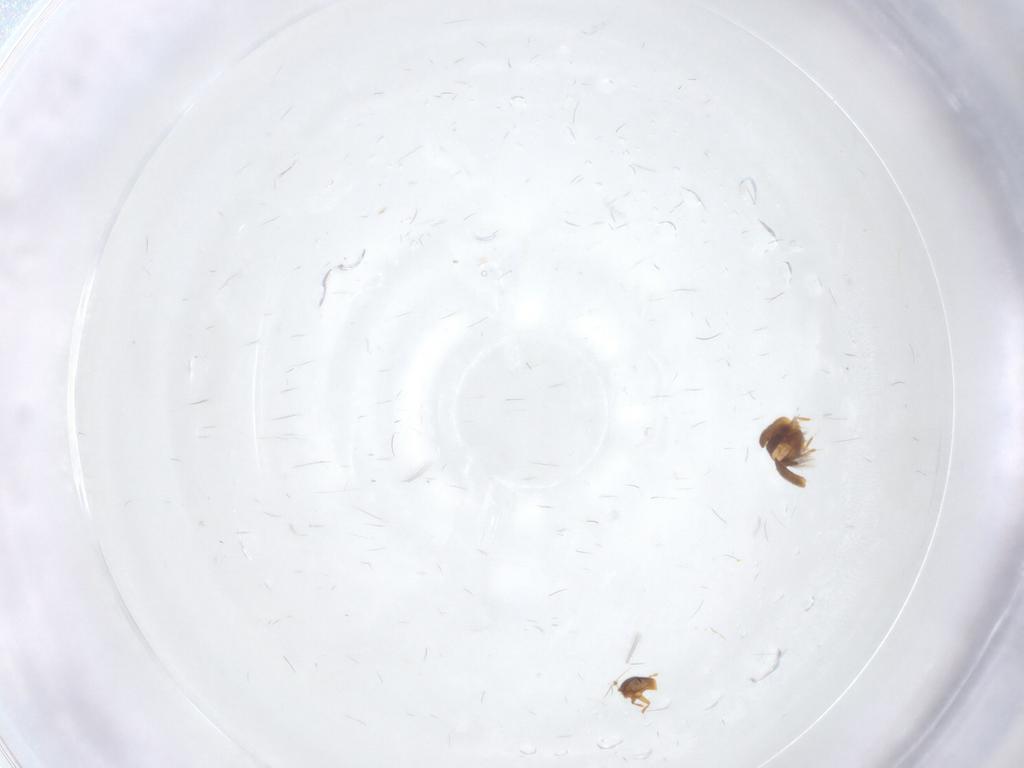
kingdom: Animalia
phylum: Arthropoda
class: Insecta
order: Coleoptera
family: Ptiliidae
